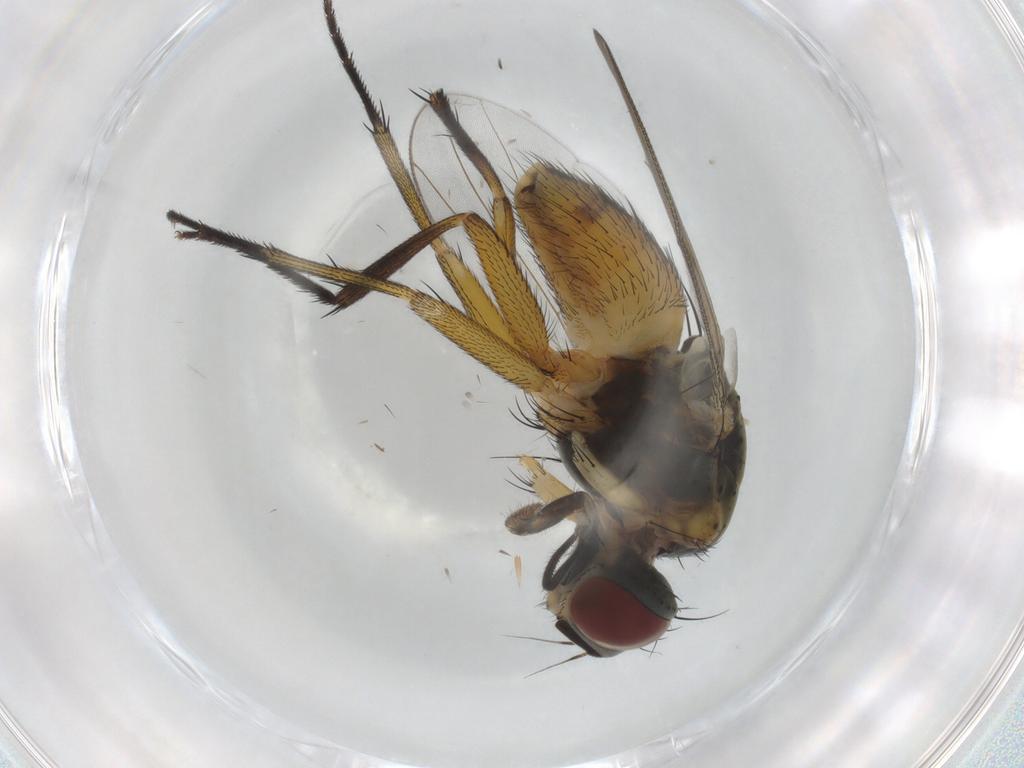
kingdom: Animalia
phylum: Arthropoda
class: Insecta
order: Diptera
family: Muscidae
